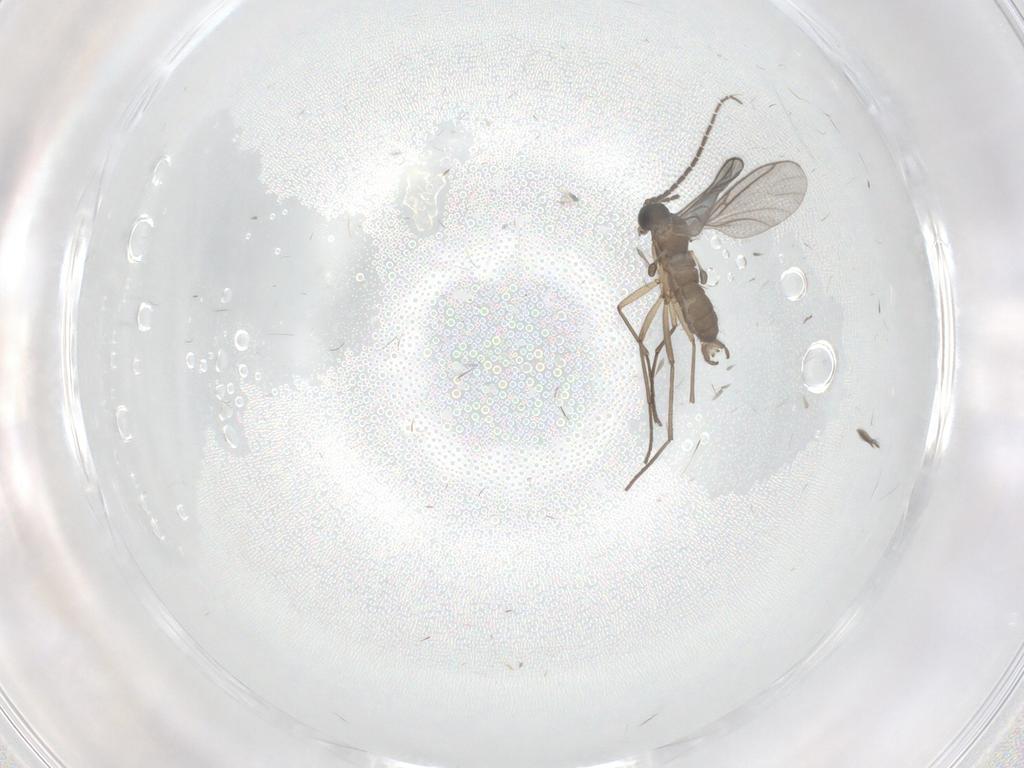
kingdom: Animalia
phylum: Arthropoda
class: Insecta
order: Diptera
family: Sciaridae
